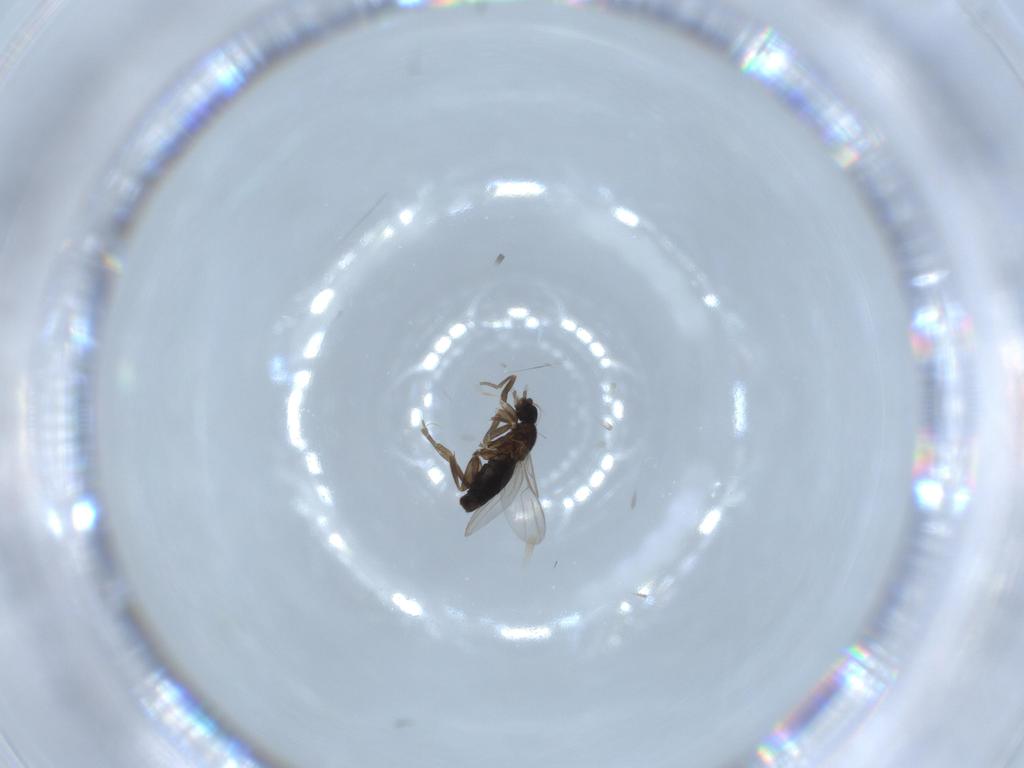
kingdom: Animalia
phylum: Arthropoda
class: Insecta
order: Diptera
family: Phoridae
